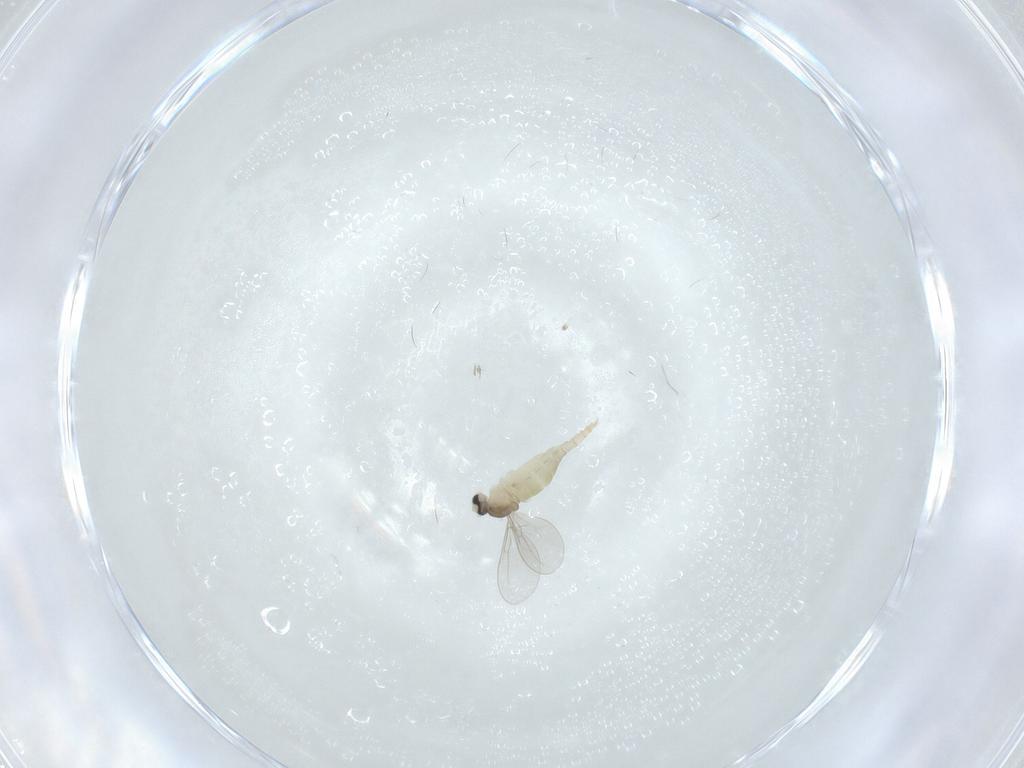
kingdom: Animalia
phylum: Arthropoda
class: Insecta
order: Diptera
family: Cecidomyiidae
